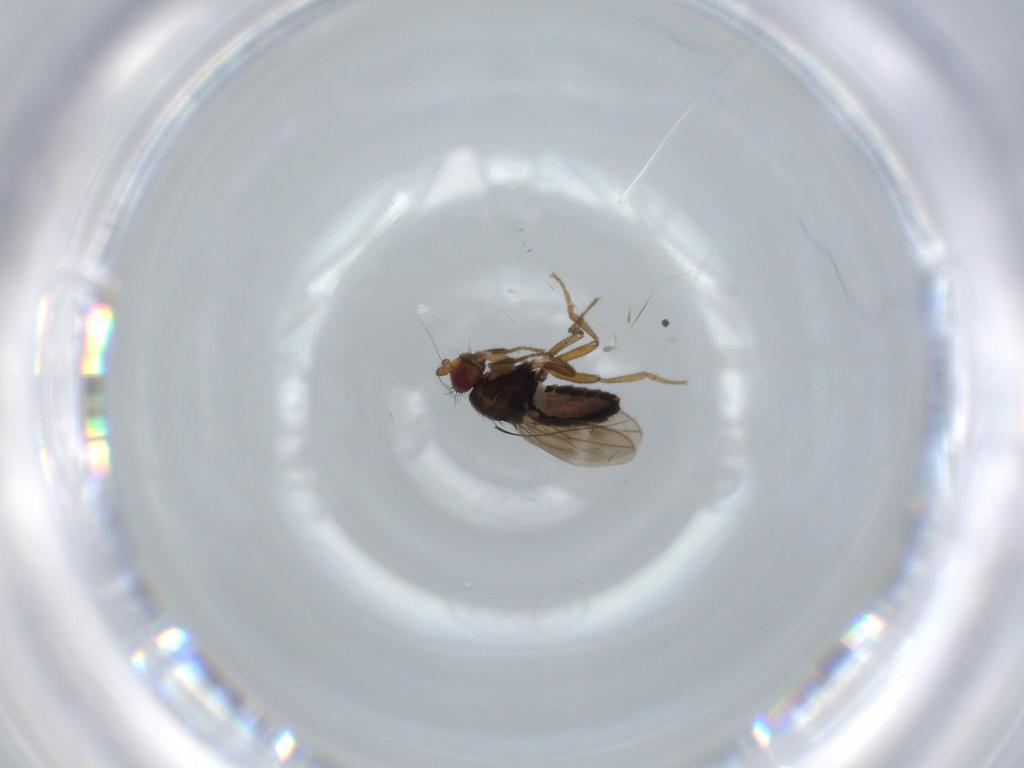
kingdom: Animalia
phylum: Arthropoda
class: Insecta
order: Diptera
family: Sphaeroceridae
